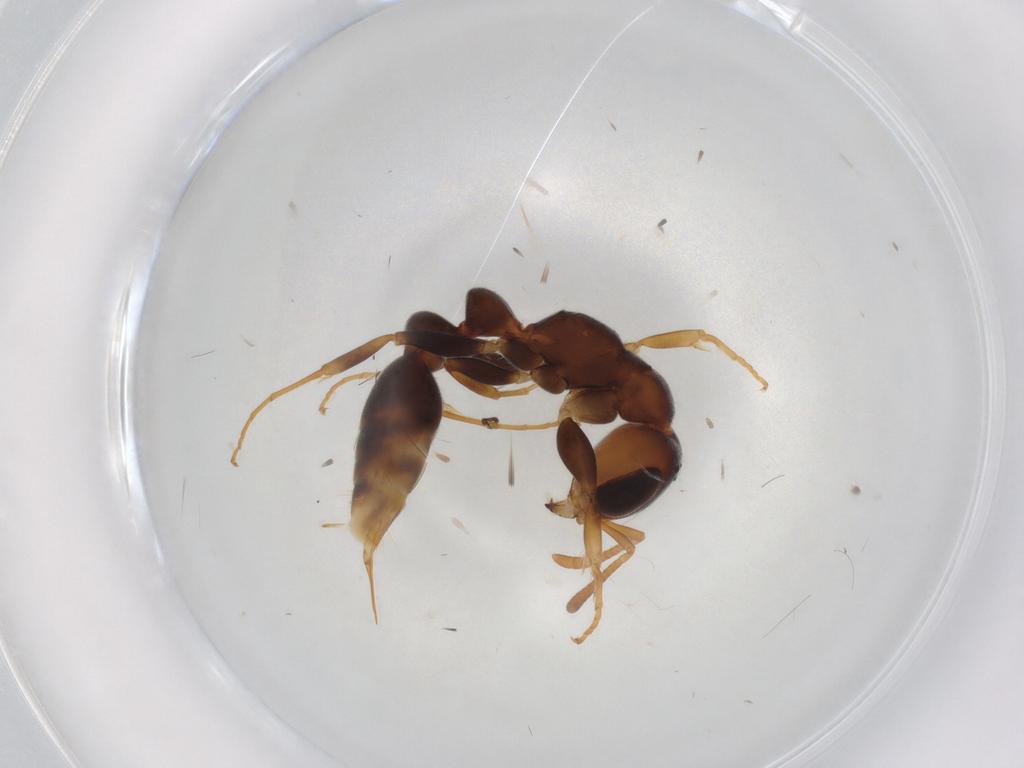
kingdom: Animalia
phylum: Arthropoda
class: Insecta
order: Hymenoptera
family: Formicidae
